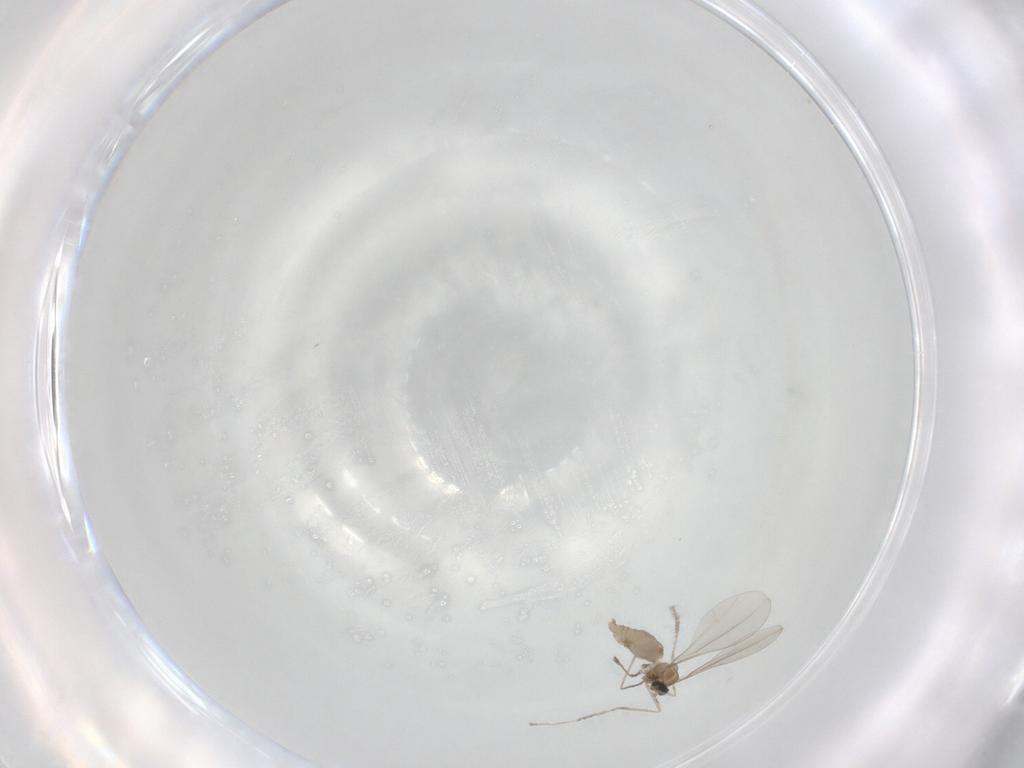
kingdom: Animalia
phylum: Arthropoda
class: Insecta
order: Diptera
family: Cecidomyiidae
